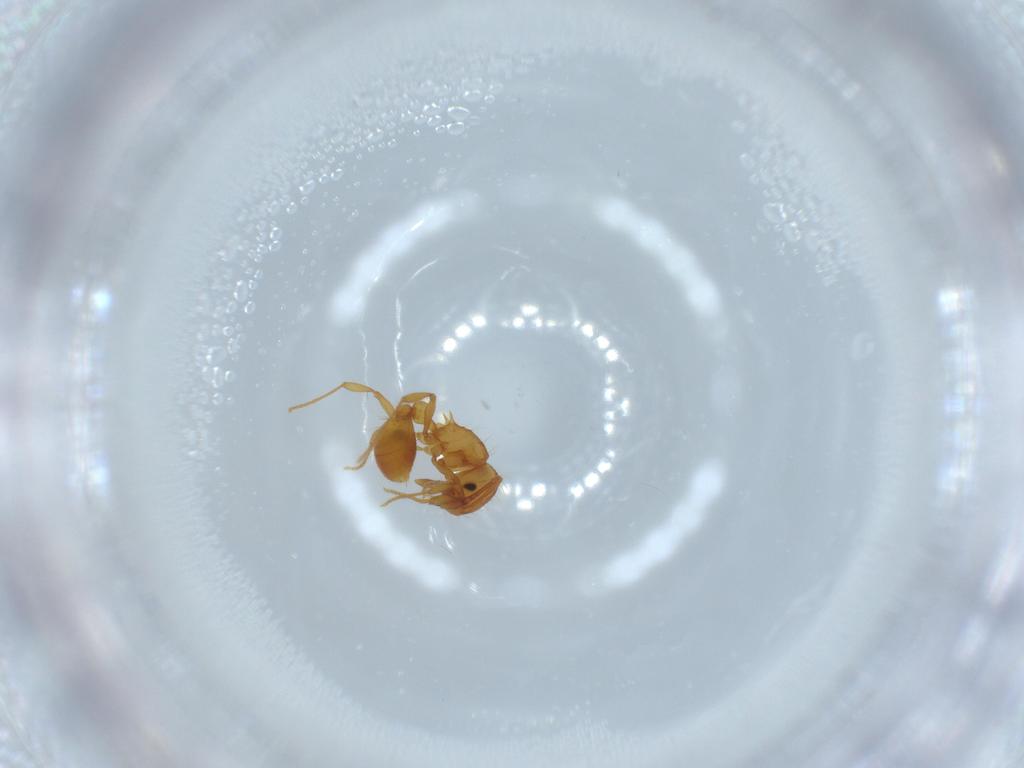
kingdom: Animalia
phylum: Arthropoda
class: Insecta
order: Hymenoptera
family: Formicidae
